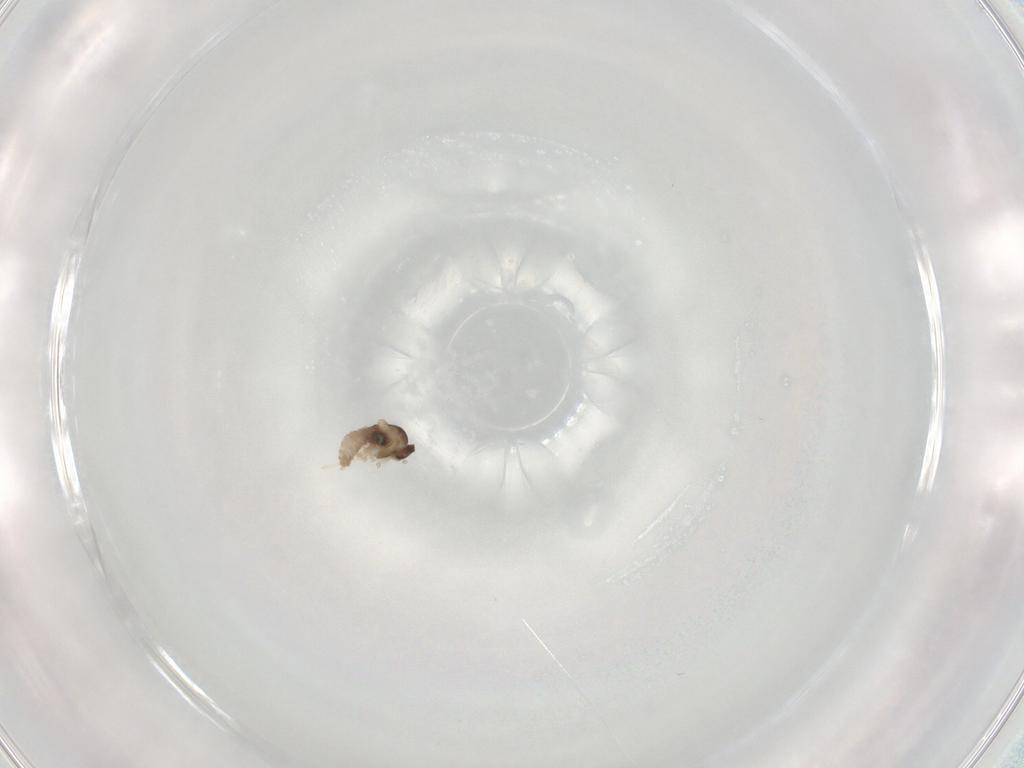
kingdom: Animalia
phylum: Arthropoda
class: Insecta
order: Diptera
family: Cecidomyiidae
